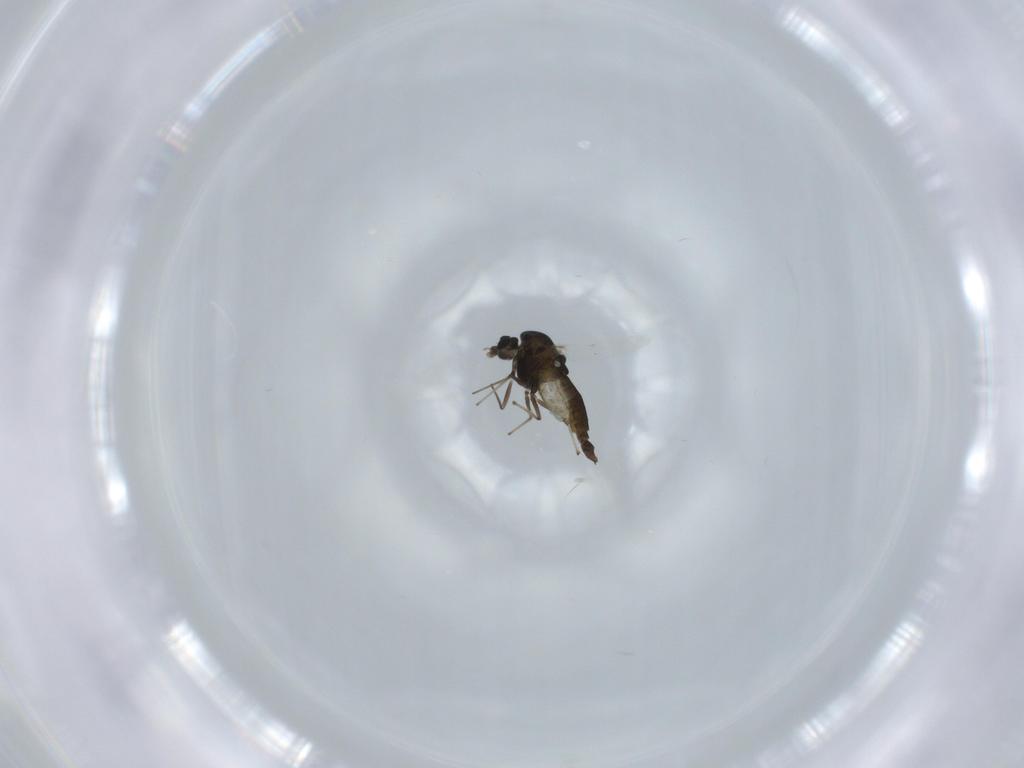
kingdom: Animalia
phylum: Arthropoda
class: Insecta
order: Diptera
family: Chironomidae
